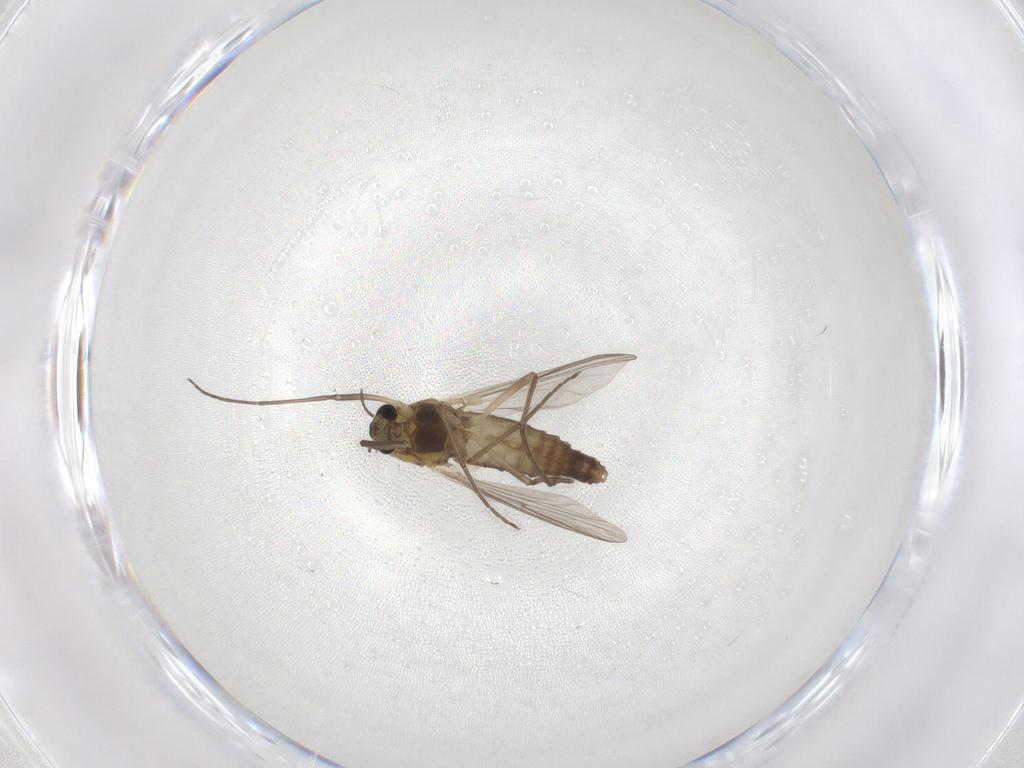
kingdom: Animalia
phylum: Arthropoda
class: Insecta
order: Diptera
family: Chironomidae
